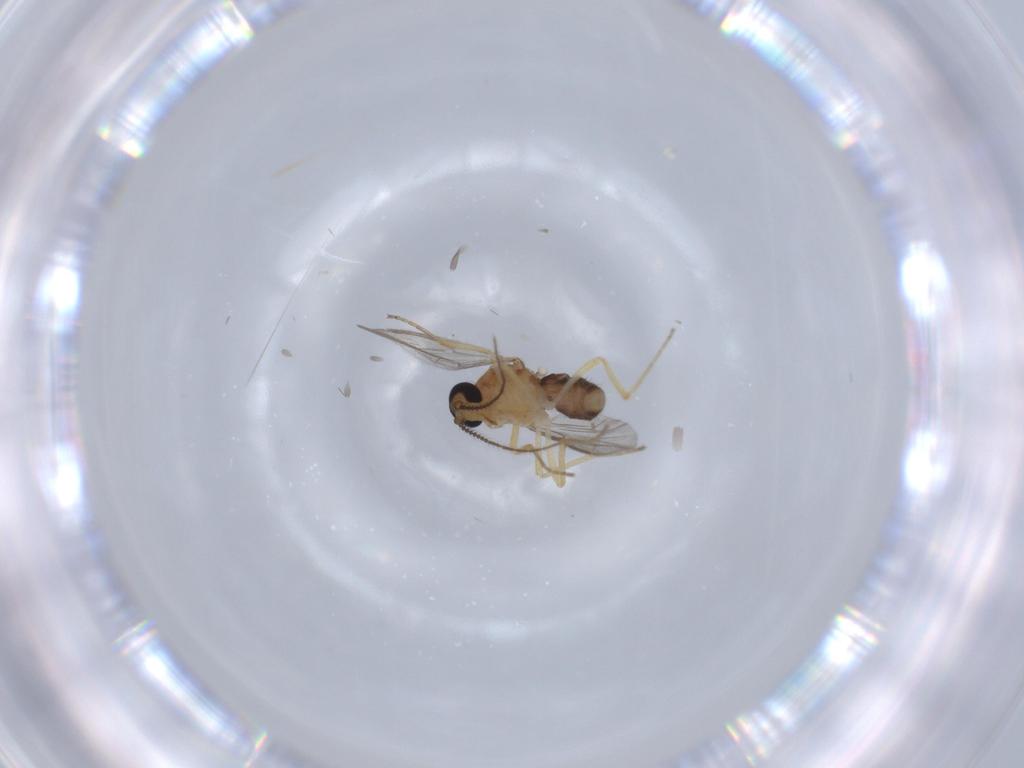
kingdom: Animalia
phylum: Arthropoda
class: Insecta
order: Diptera
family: Ceratopogonidae
